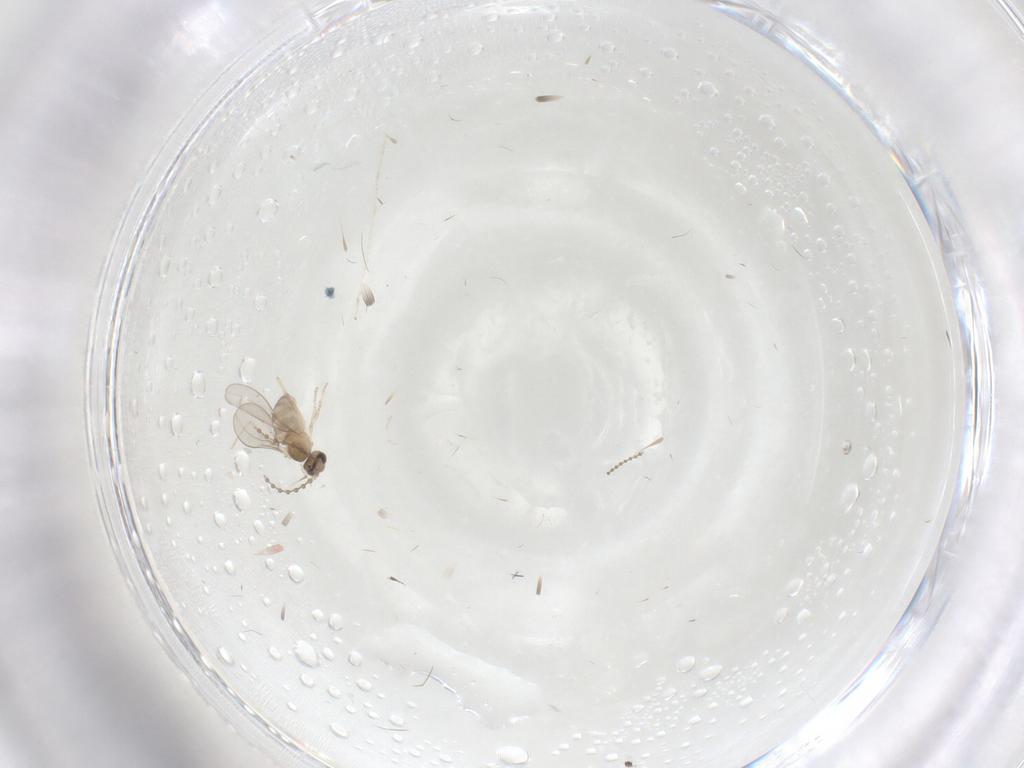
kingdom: Animalia
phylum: Arthropoda
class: Insecta
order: Diptera
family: Cecidomyiidae
